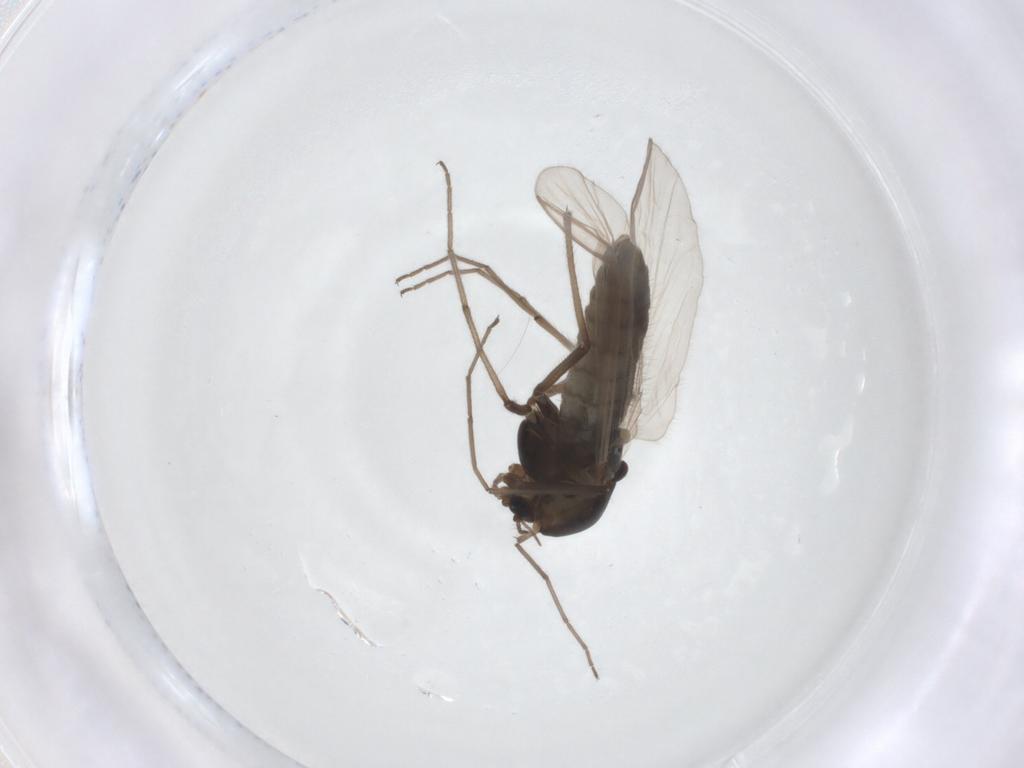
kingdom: Animalia
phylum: Arthropoda
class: Insecta
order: Diptera
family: Chironomidae
